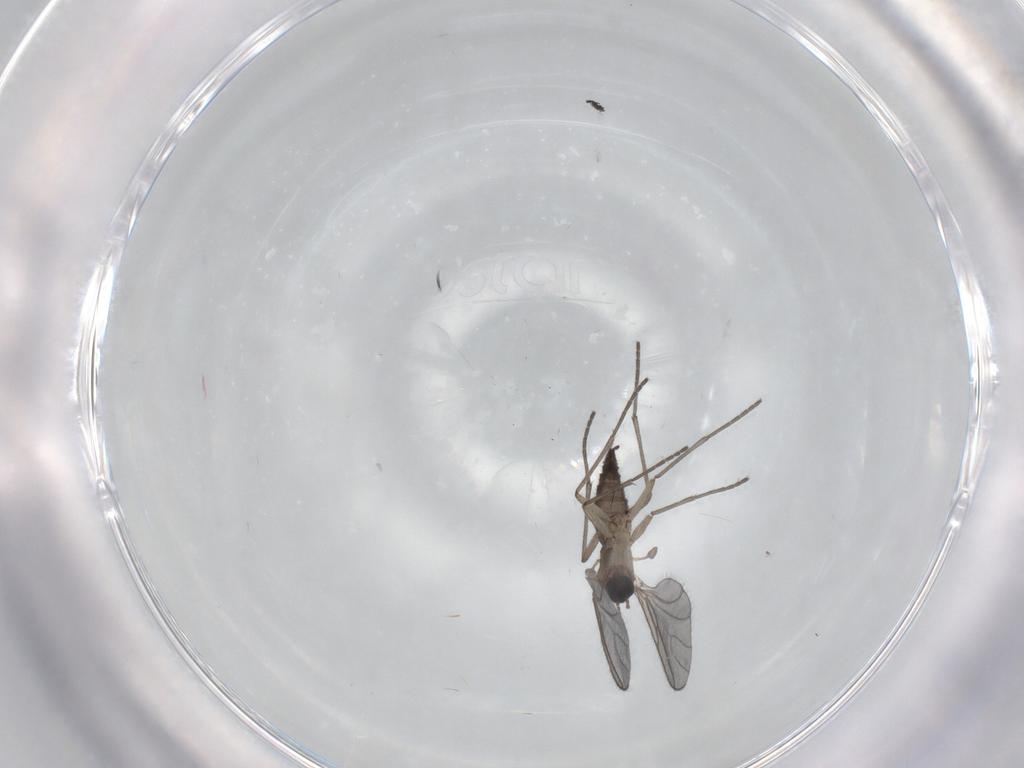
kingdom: Animalia
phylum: Arthropoda
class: Insecta
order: Diptera
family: Sciaridae
